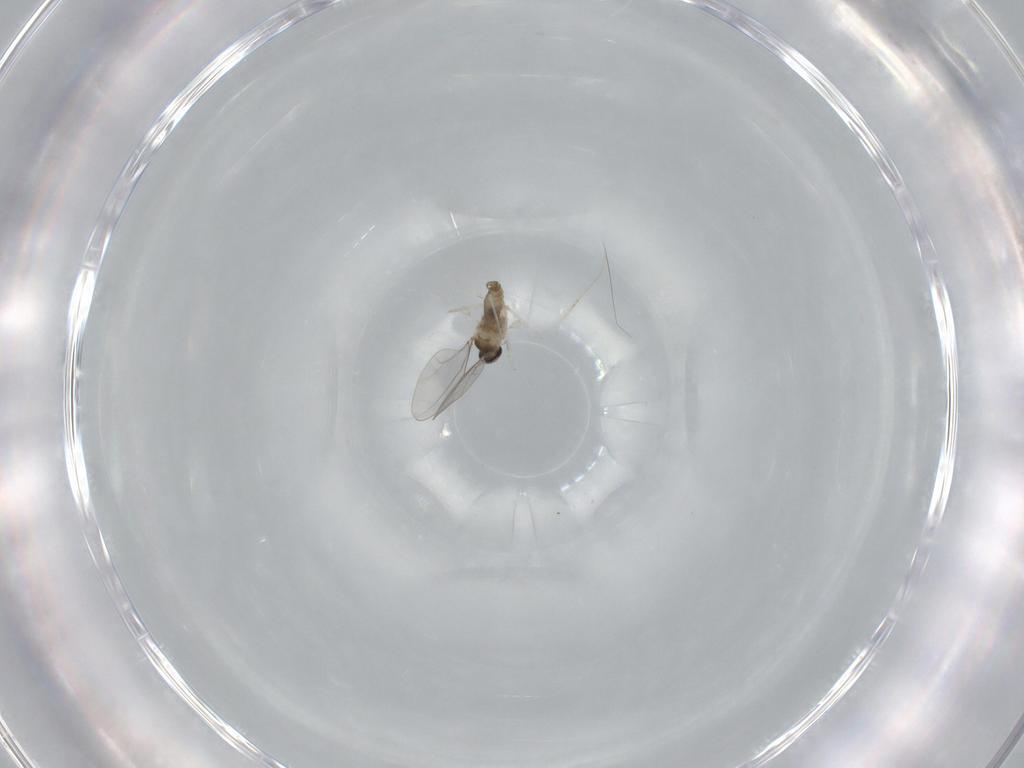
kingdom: Animalia
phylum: Arthropoda
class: Insecta
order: Diptera
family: Cecidomyiidae
